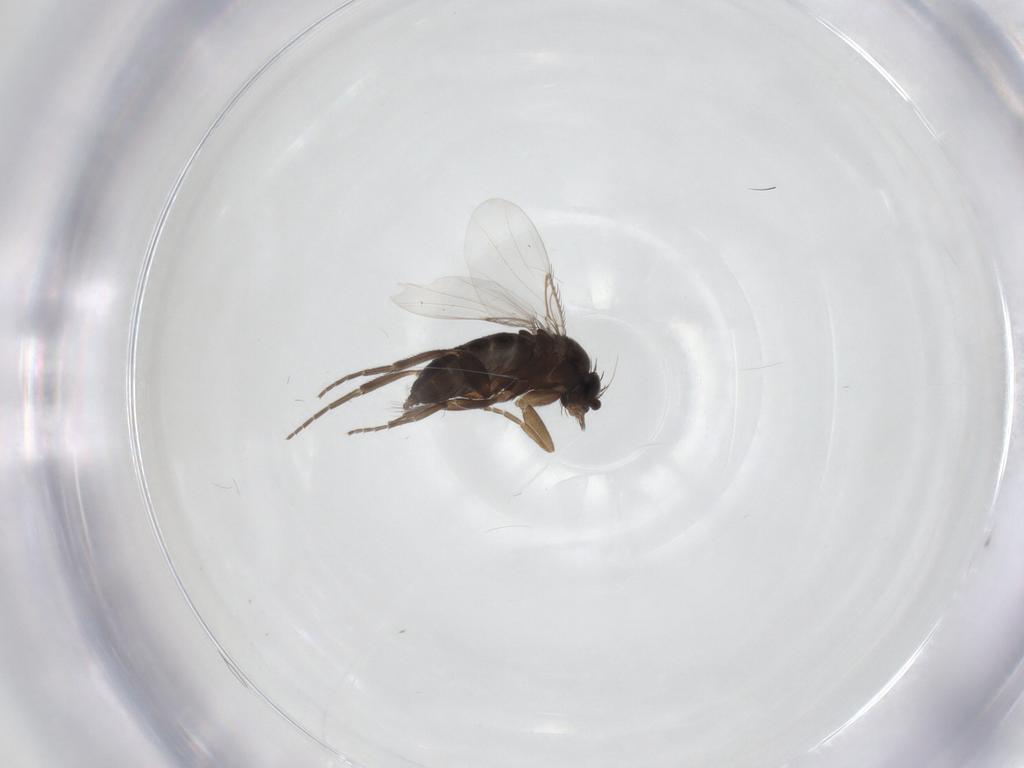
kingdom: Animalia
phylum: Arthropoda
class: Insecta
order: Diptera
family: Phoridae
